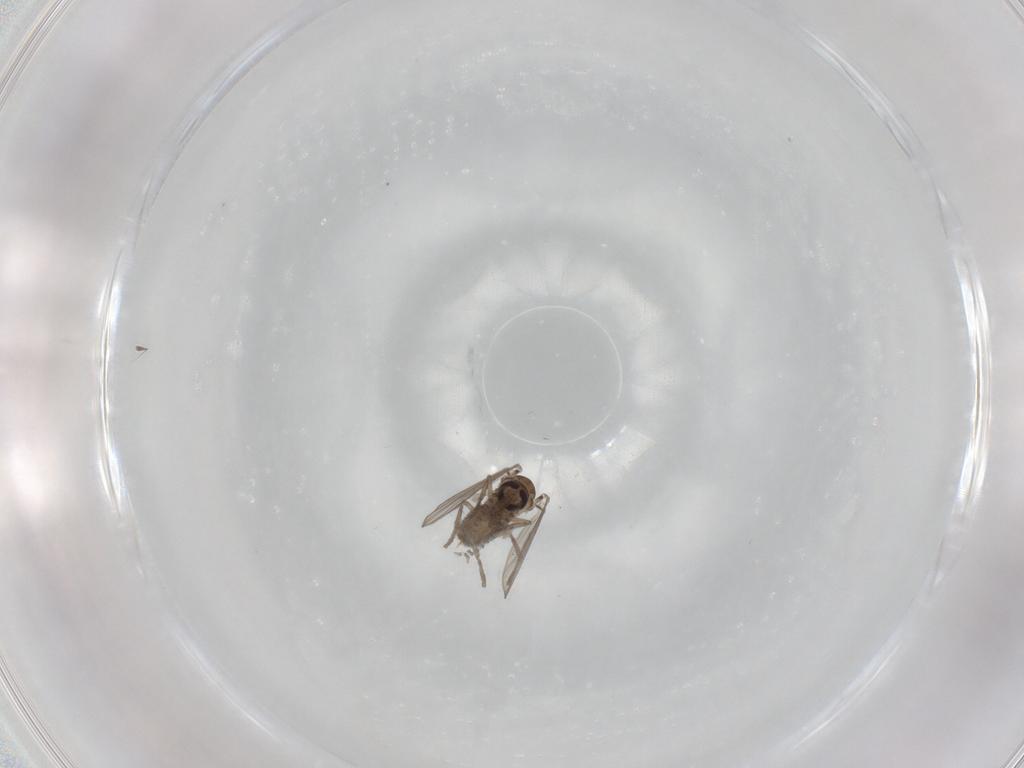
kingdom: Animalia
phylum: Arthropoda
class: Insecta
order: Diptera
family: Psychodidae
